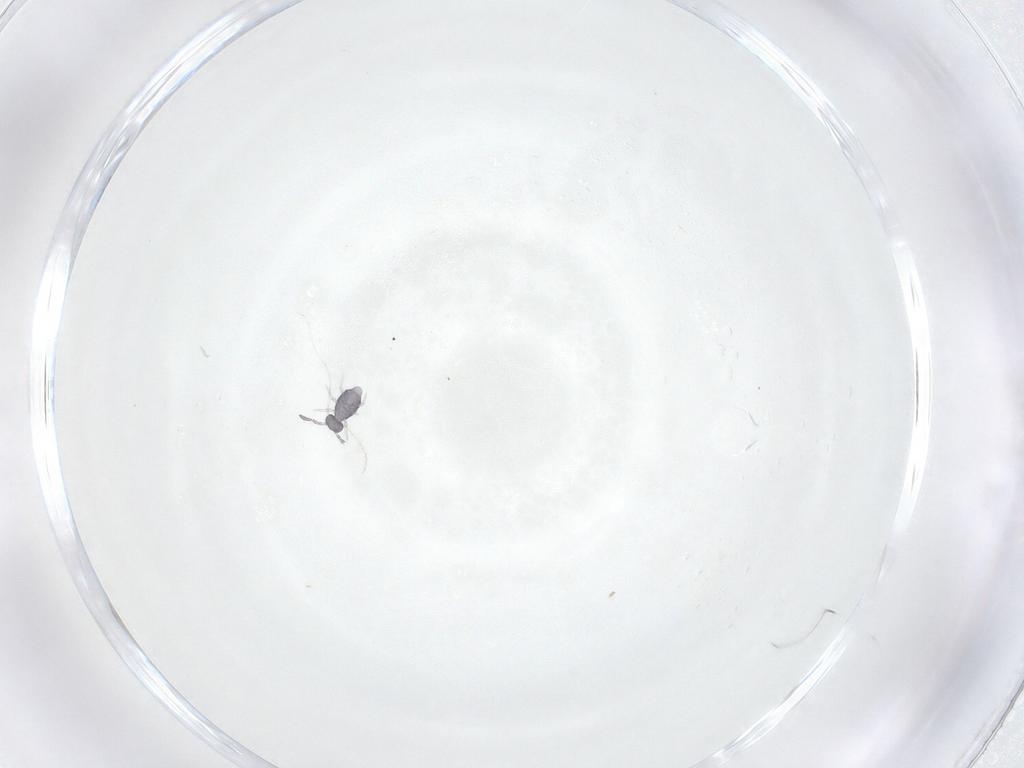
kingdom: Animalia
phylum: Arthropoda
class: Collembola
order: Symphypleona
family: Katiannidae
